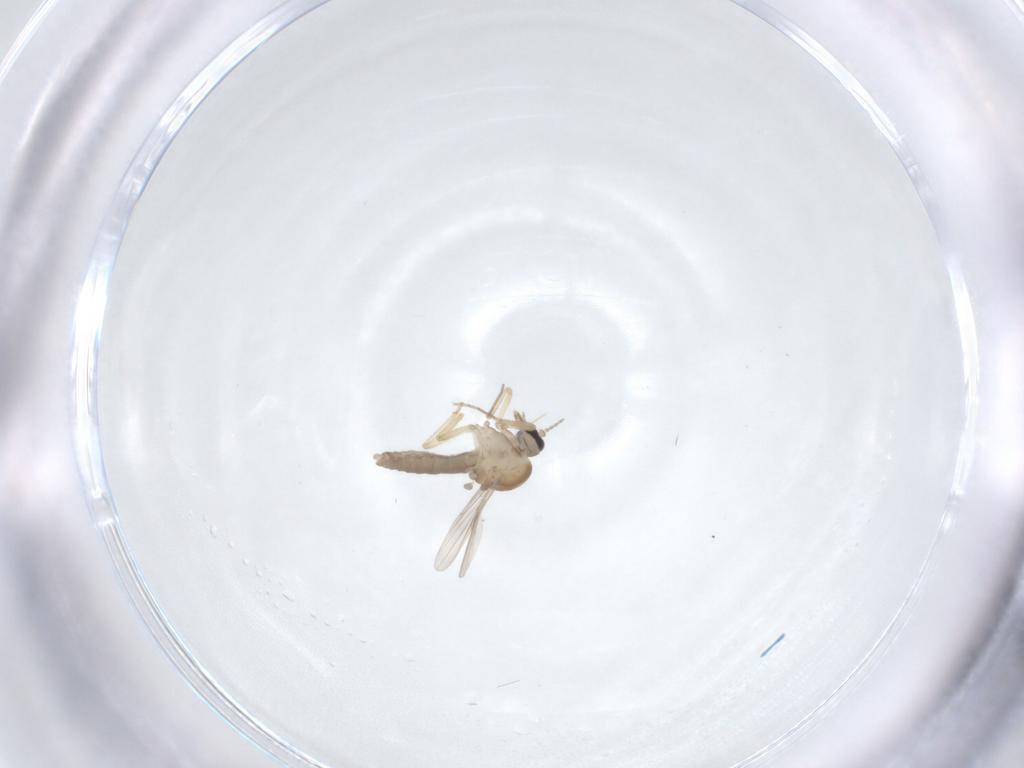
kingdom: Animalia
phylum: Arthropoda
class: Insecta
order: Diptera
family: Ceratopogonidae
